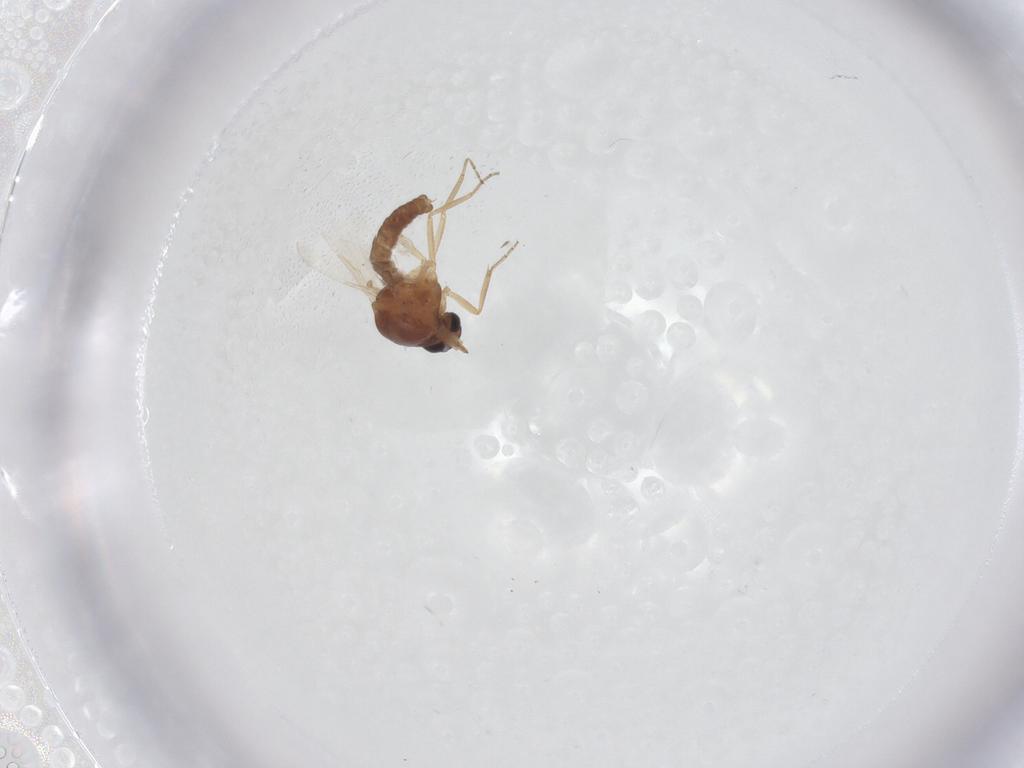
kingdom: Animalia
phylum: Arthropoda
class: Insecta
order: Diptera
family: Ceratopogonidae
